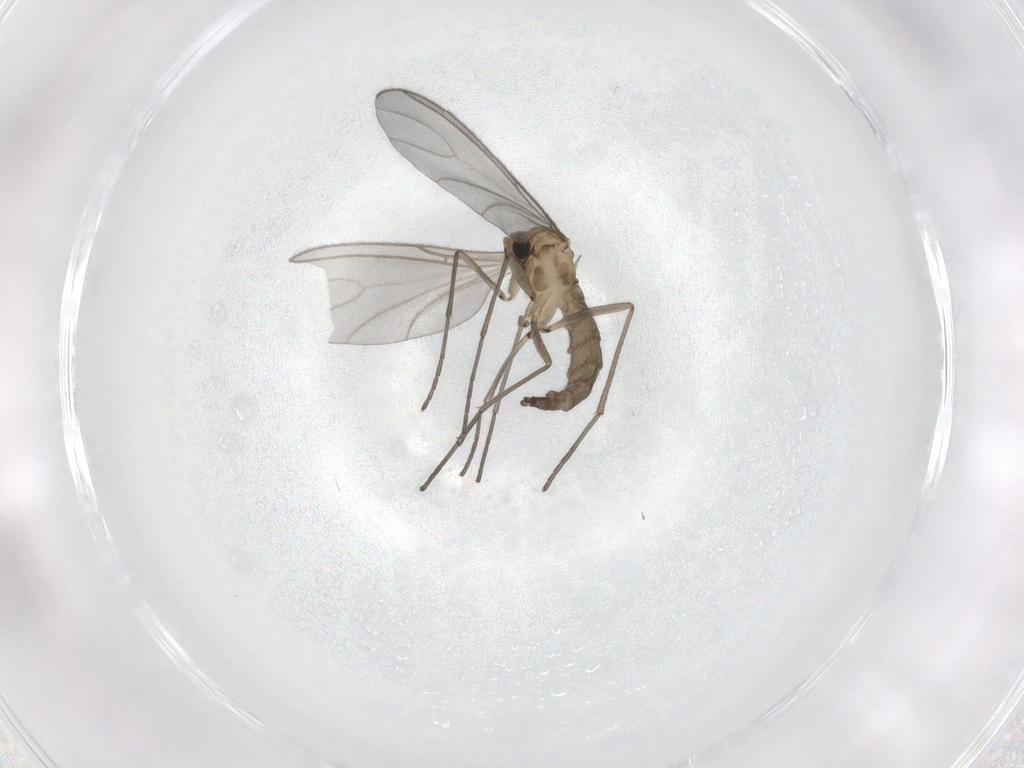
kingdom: Animalia
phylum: Arthropoda
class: Insecta
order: Diptera
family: Sciaridae
